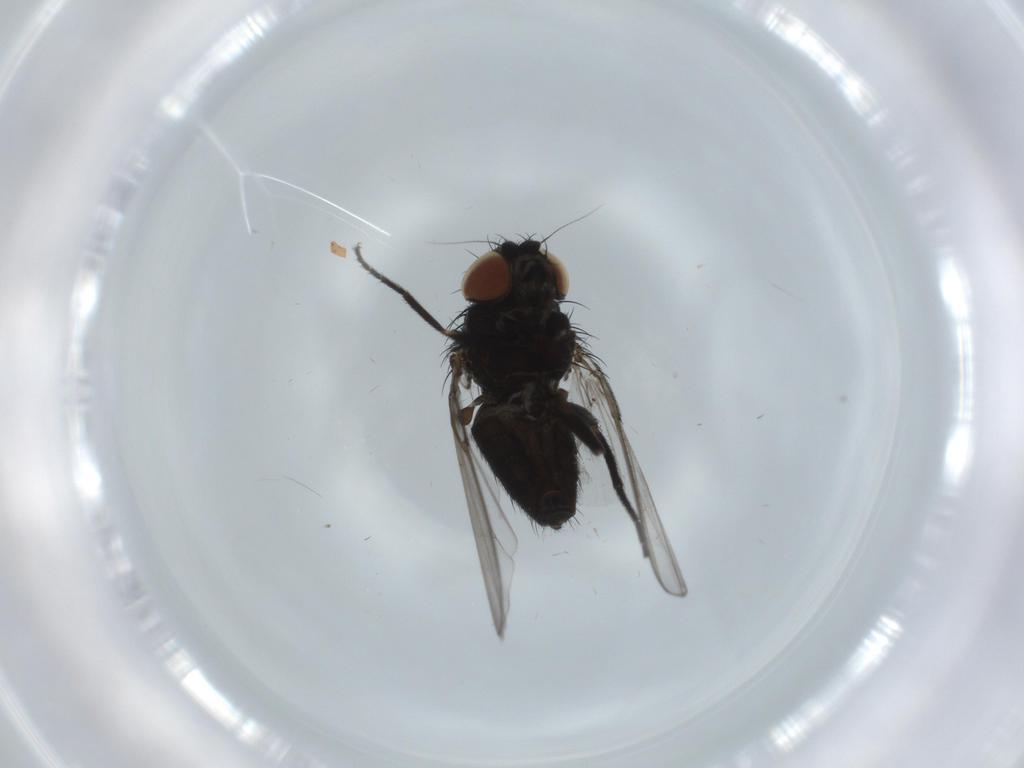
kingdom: Animalia
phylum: Arthropoda
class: Insecta
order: Diptera
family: Milichiidae
